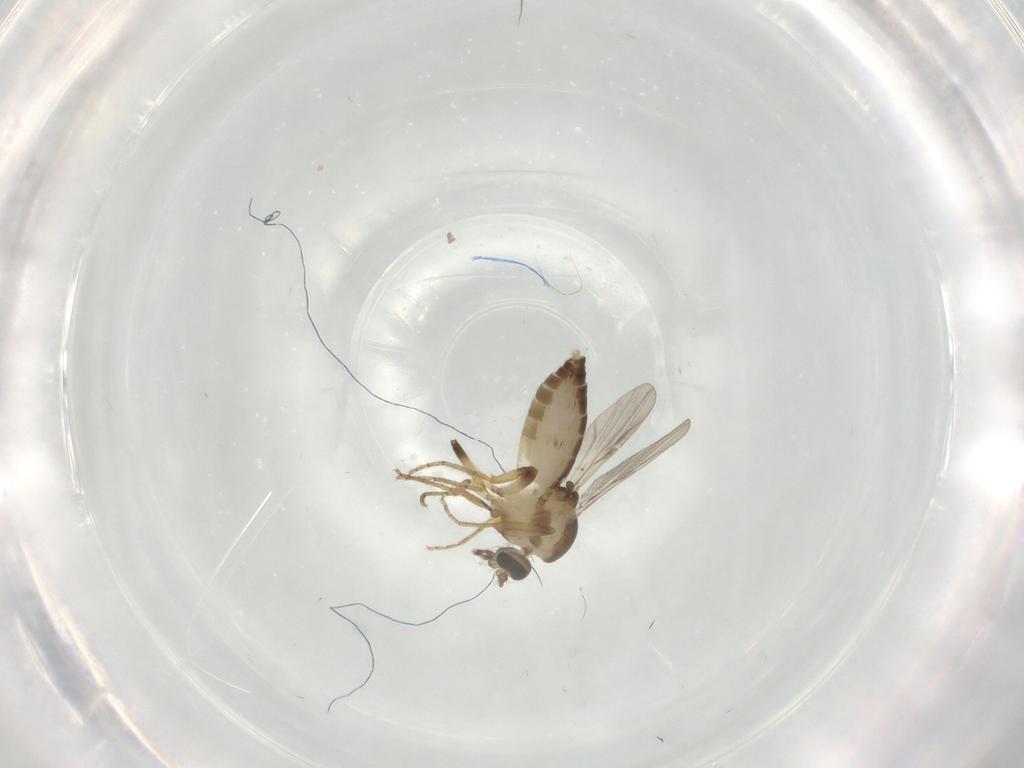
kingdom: Animalia
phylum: Arthropoda
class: Insecta
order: Diptera
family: Ceratopogonidae
